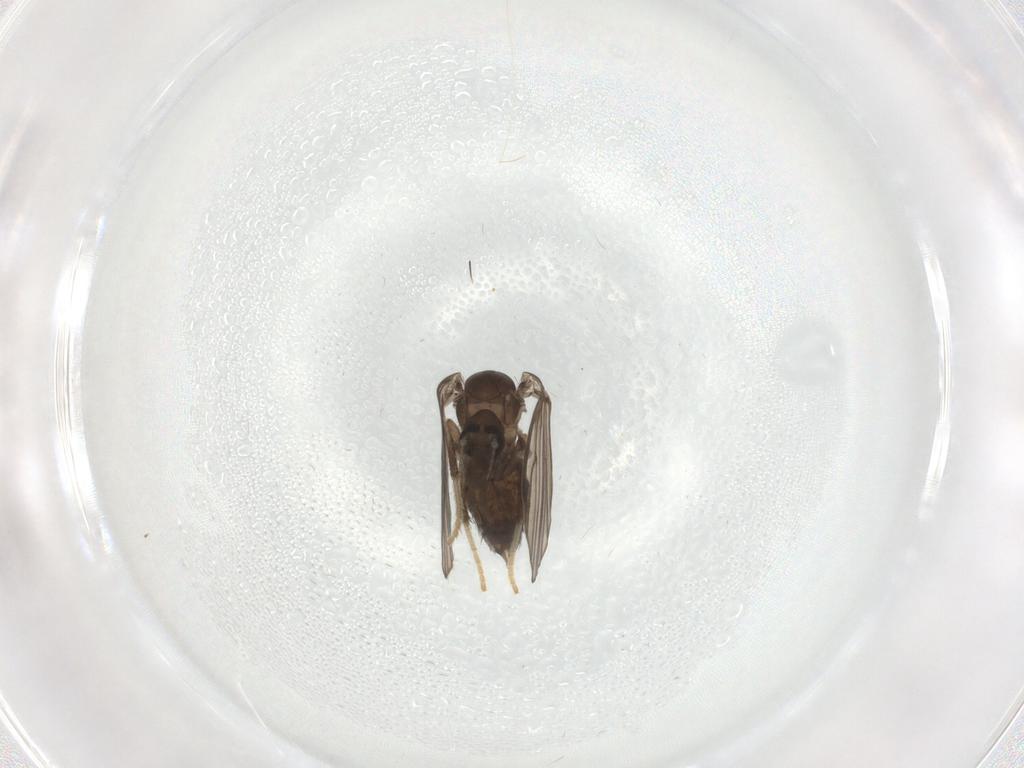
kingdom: Animalia
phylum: Arthropoda
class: Insecta
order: Diptera
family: Psychodidae
